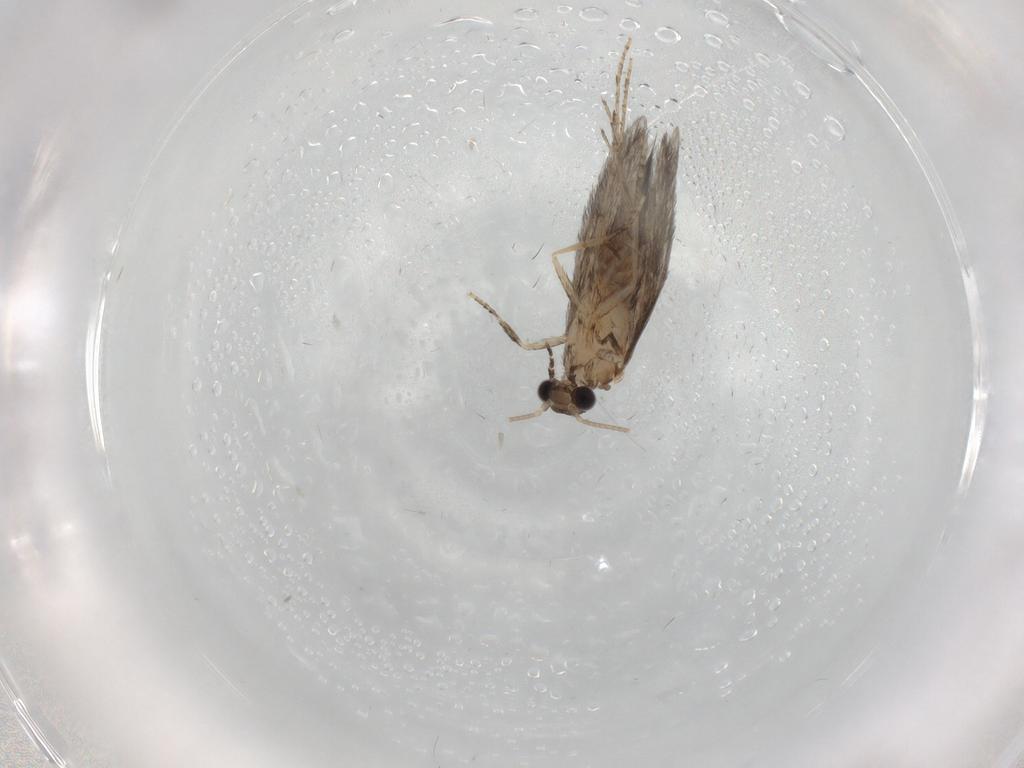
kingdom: Animalia
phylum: Arthropoda
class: Insecta
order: Trichoptera
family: Hydroptilidae
